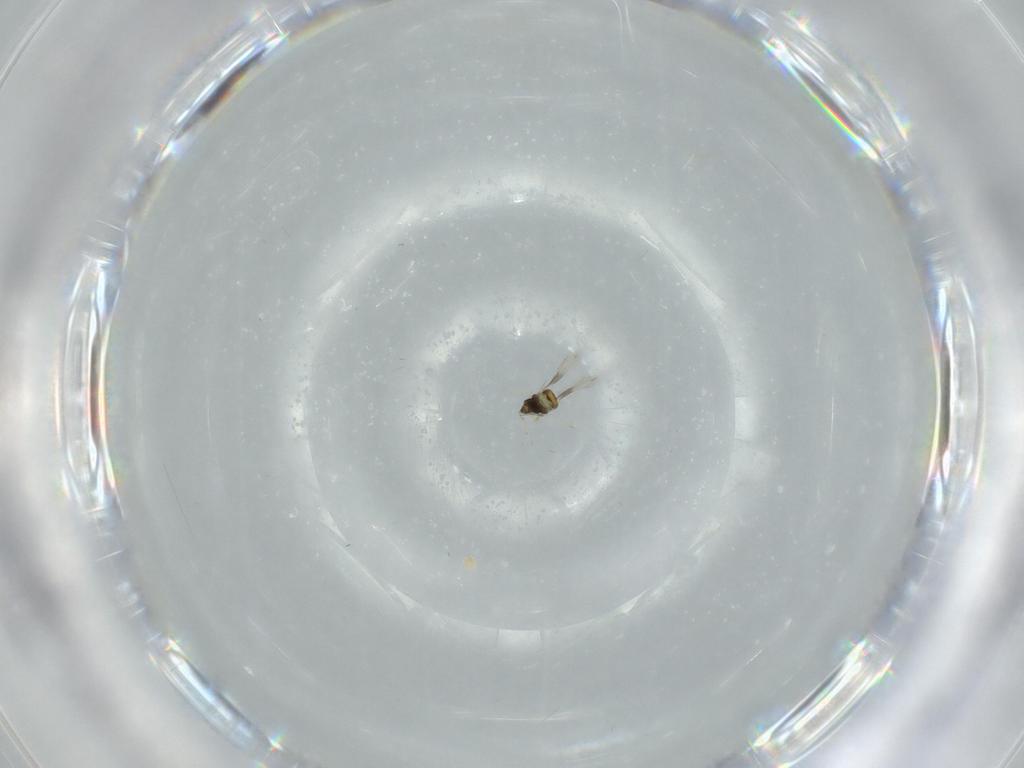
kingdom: Animalia
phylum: Arthropoda
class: Insecta
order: Hymenoptera
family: Aphelinidae
